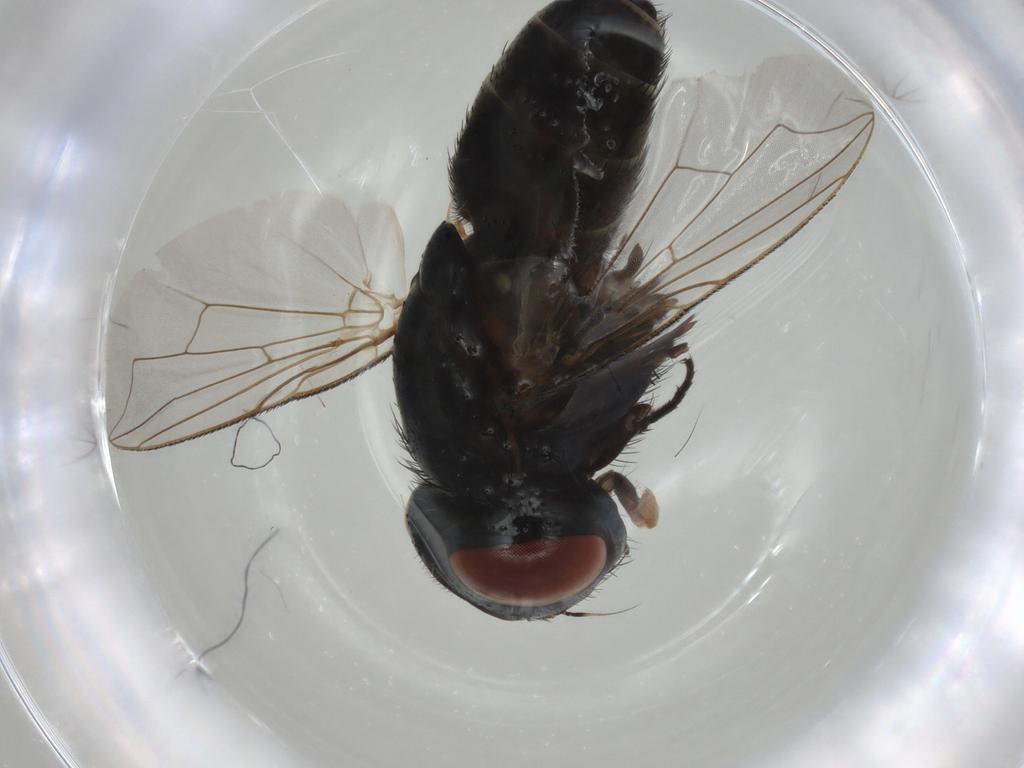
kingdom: Animalia
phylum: Arthropoda
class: Insecta
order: Diptera
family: Sarcophagidae
